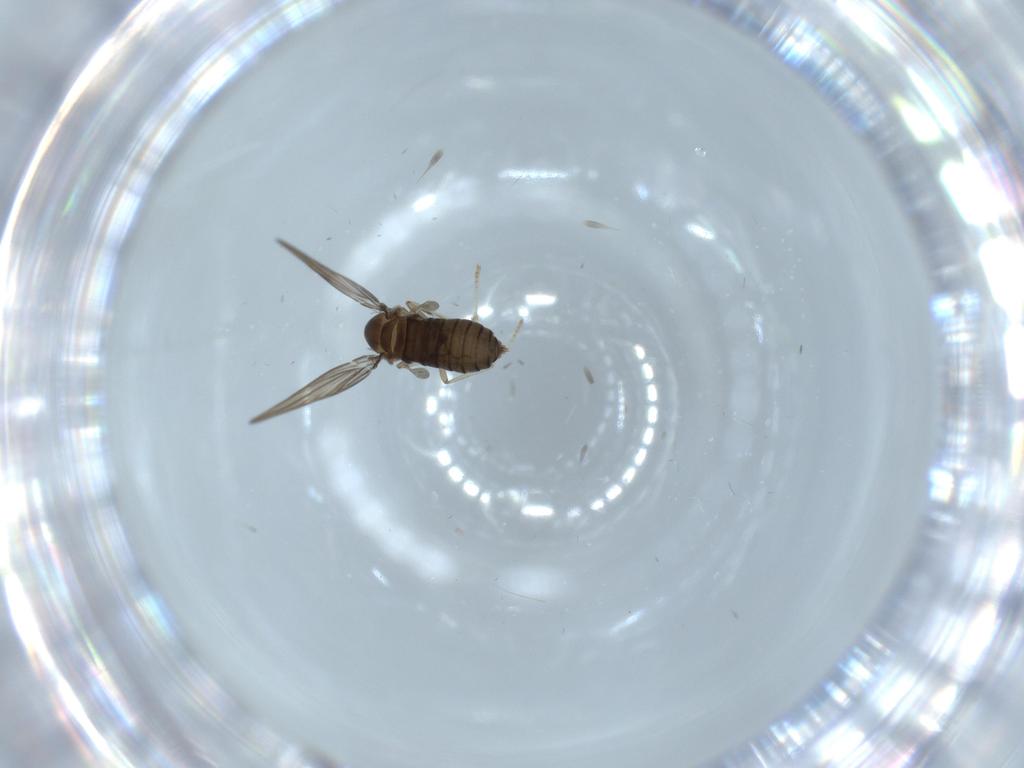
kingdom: Animalia
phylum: Arthropoda
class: Insecta
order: Diptera
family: Psychodidae
